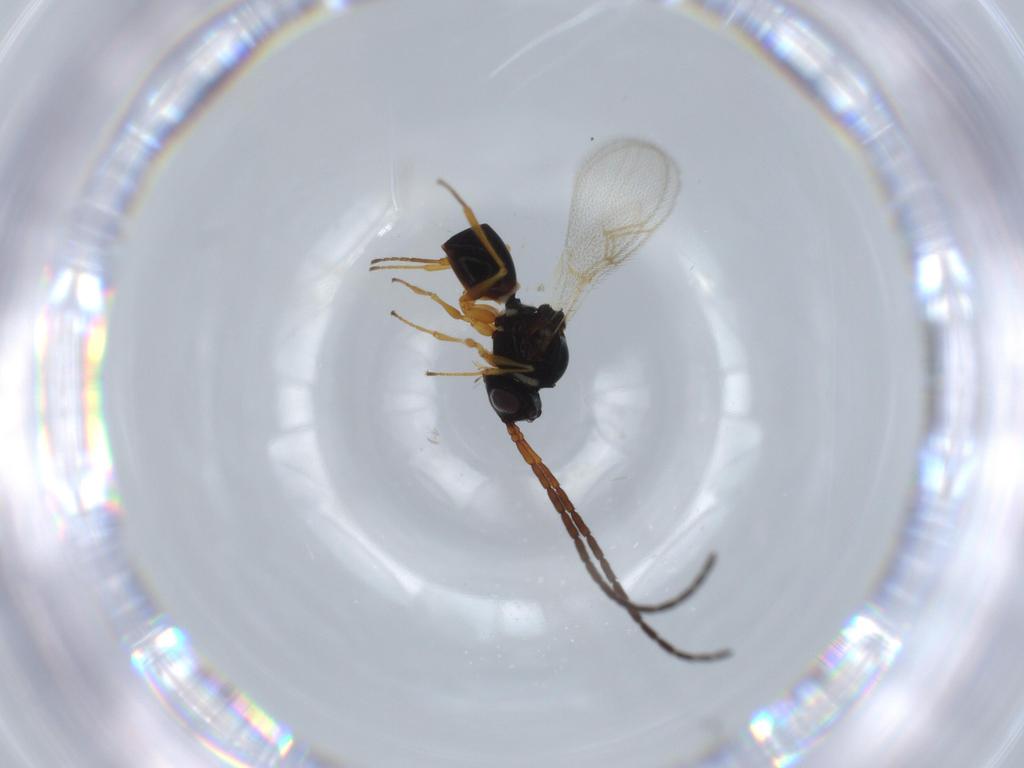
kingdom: Animalia
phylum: Arthropoda
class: Insecta
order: Hymenoptera
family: Figitidae
